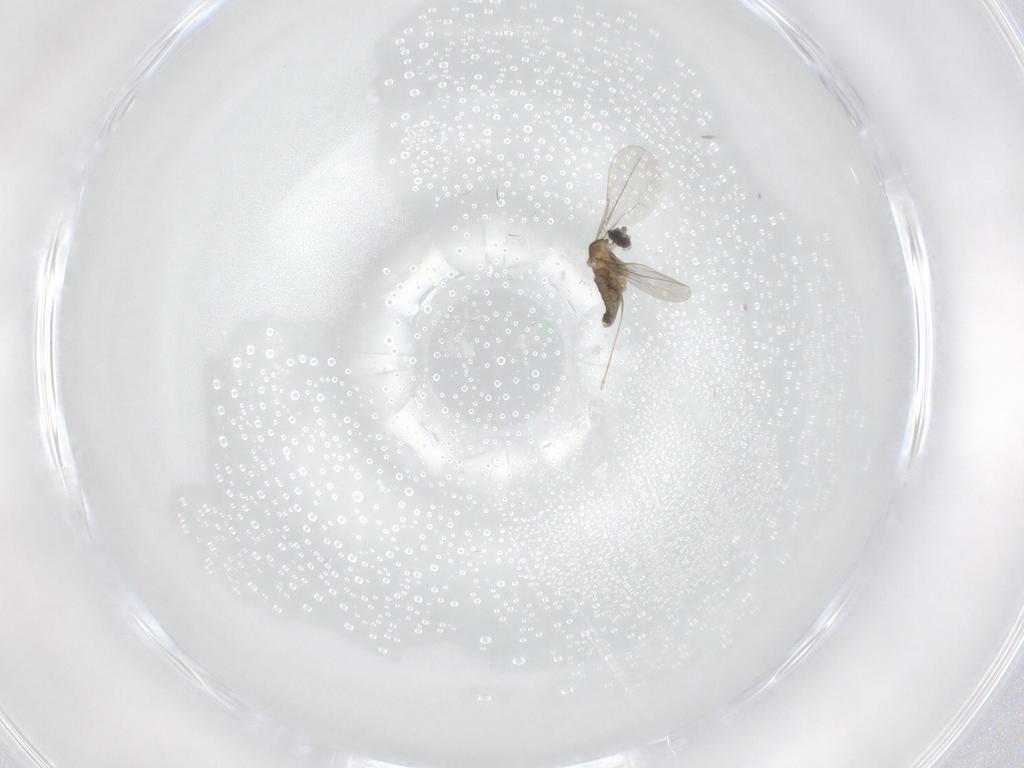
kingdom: Animalia
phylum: Arthropoda
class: Insecta
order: Diptera
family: Cecidomyiidae
